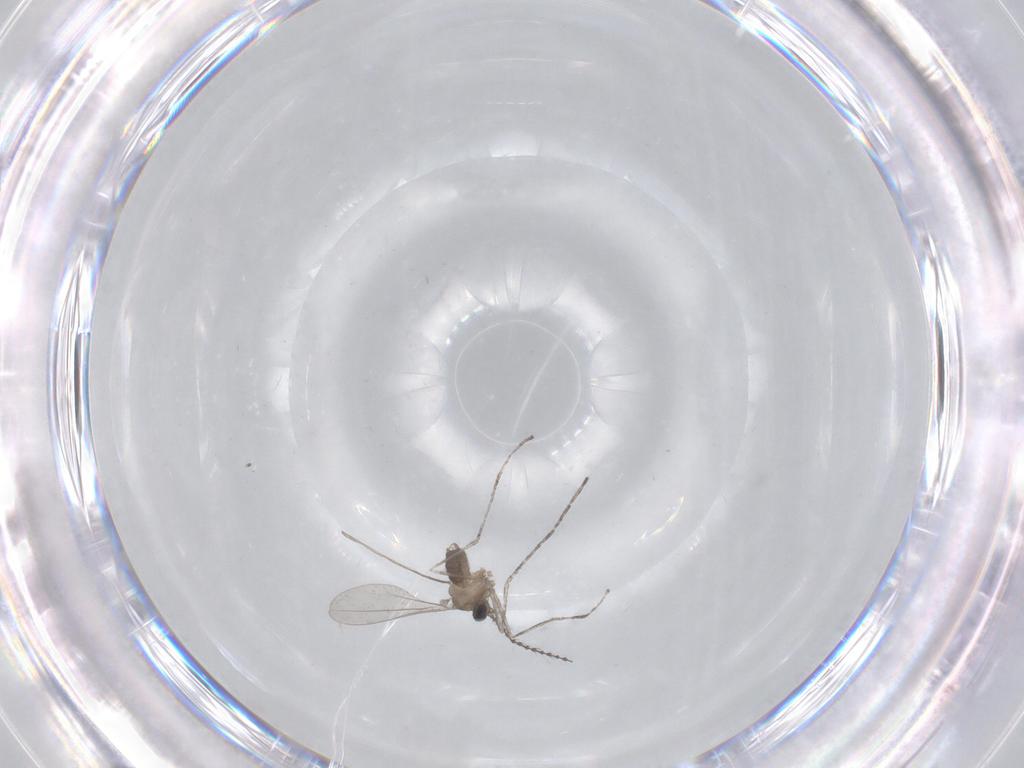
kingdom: Animalia
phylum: Arthropoda
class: Insecta
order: Diptera
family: Cecidomyiidae
